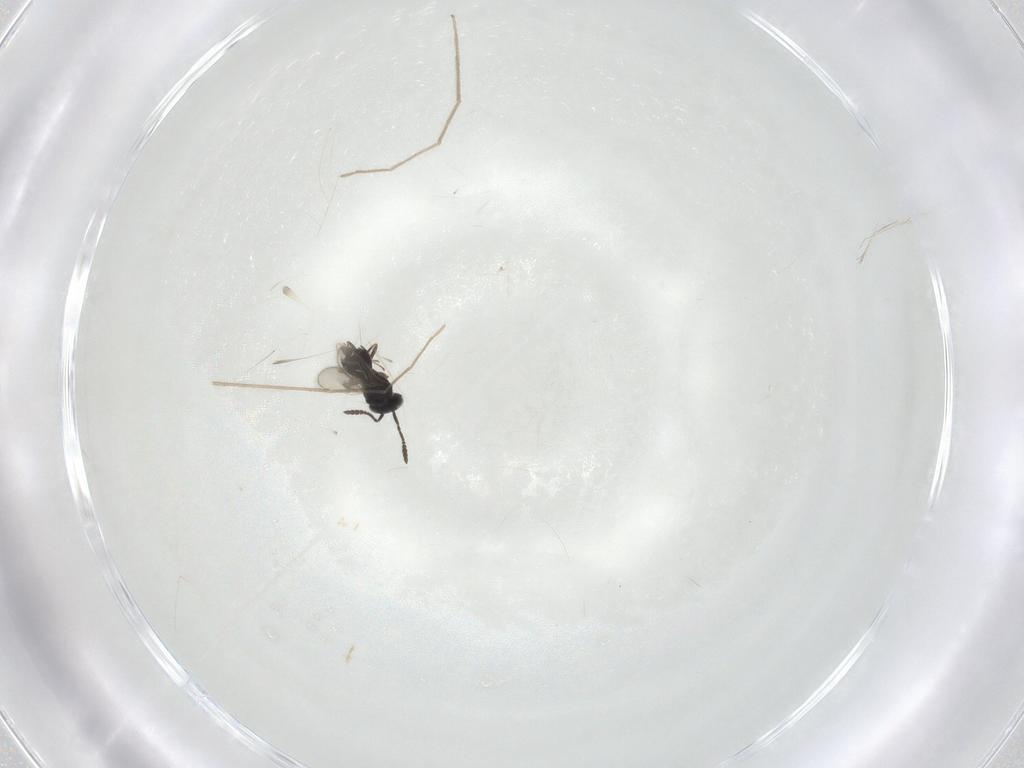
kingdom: Animalia
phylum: Arthropoda
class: Insecta
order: Hymenoptera
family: Scelionidae
